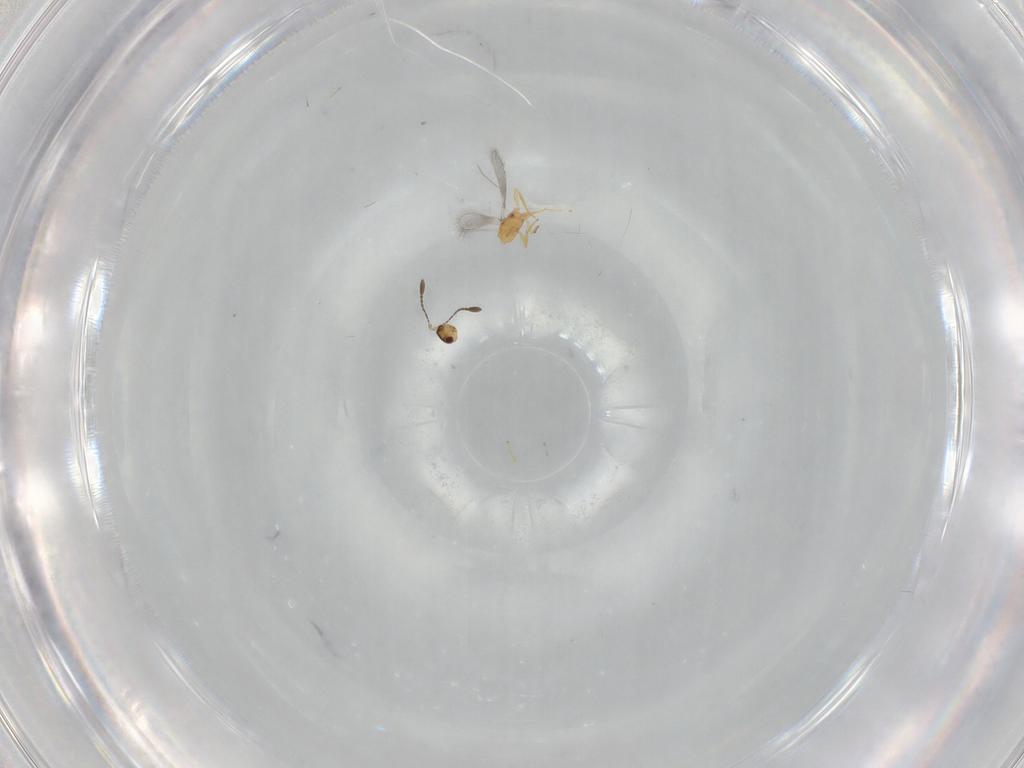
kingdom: Animalia
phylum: Arthropoda
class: Insecta
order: Hymenoptera
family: Mymaridae
